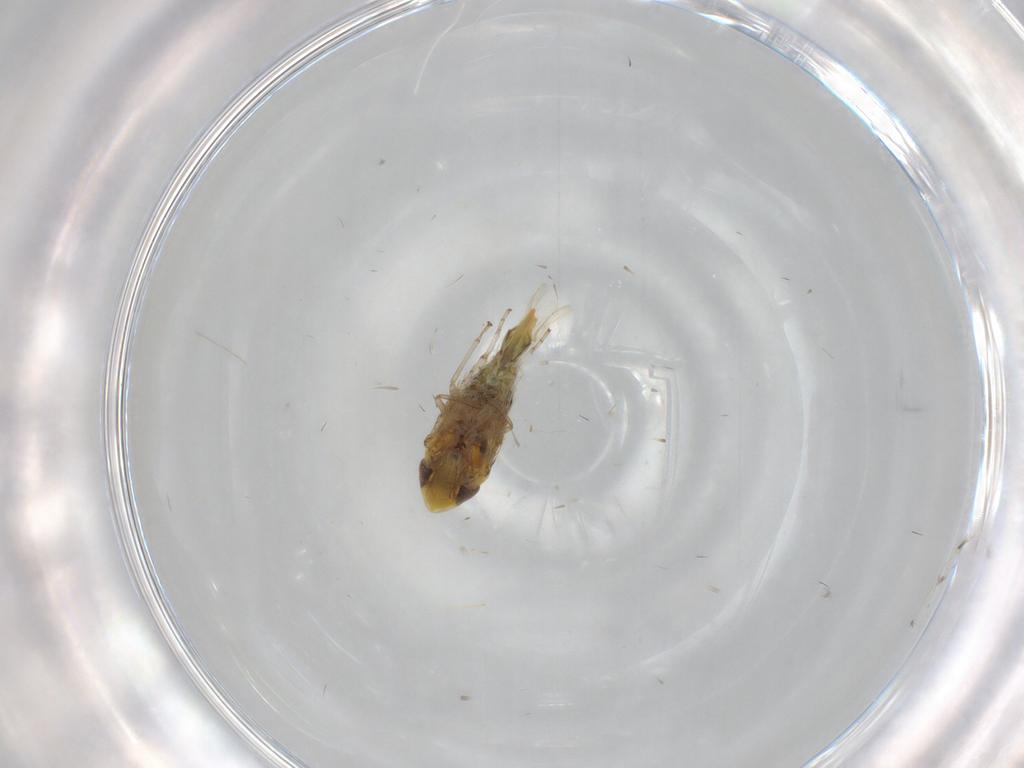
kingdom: Animalia
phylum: Arthropoda
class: Insecta
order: Hemiptera
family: Cicadellidae
